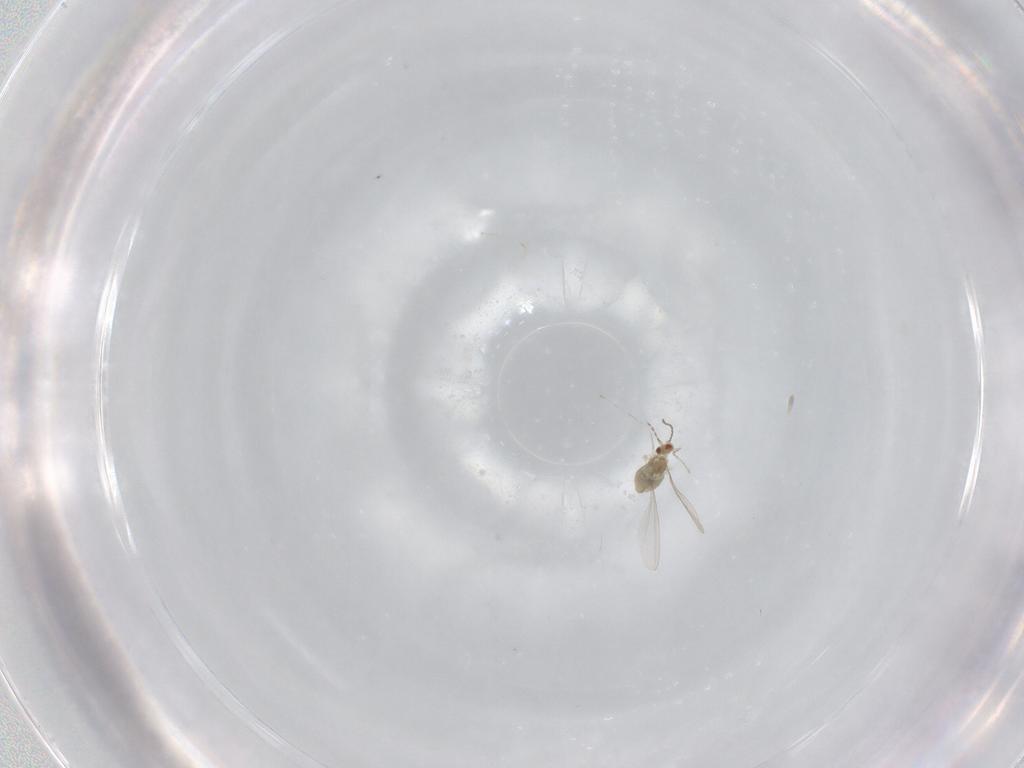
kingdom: Animalia
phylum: Arthropoda
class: Insecta
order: Diptera
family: Cecidomyiidae
